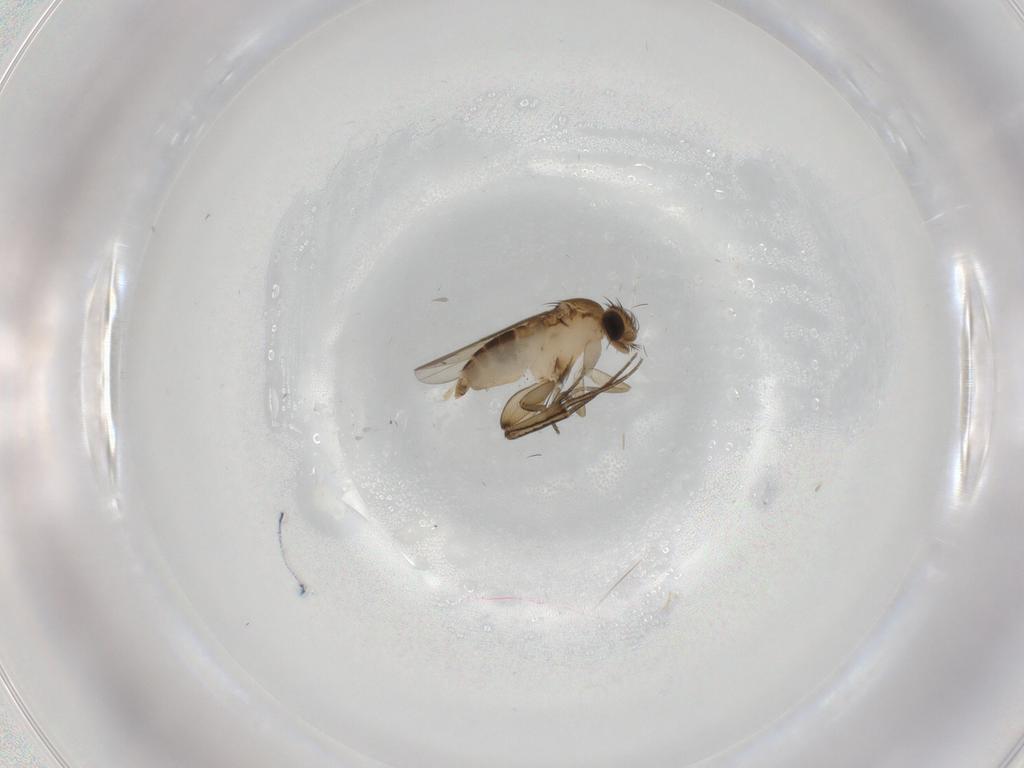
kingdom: Animalia
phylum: Arthropoda
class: Insecta
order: Diptera
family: Phoridae
